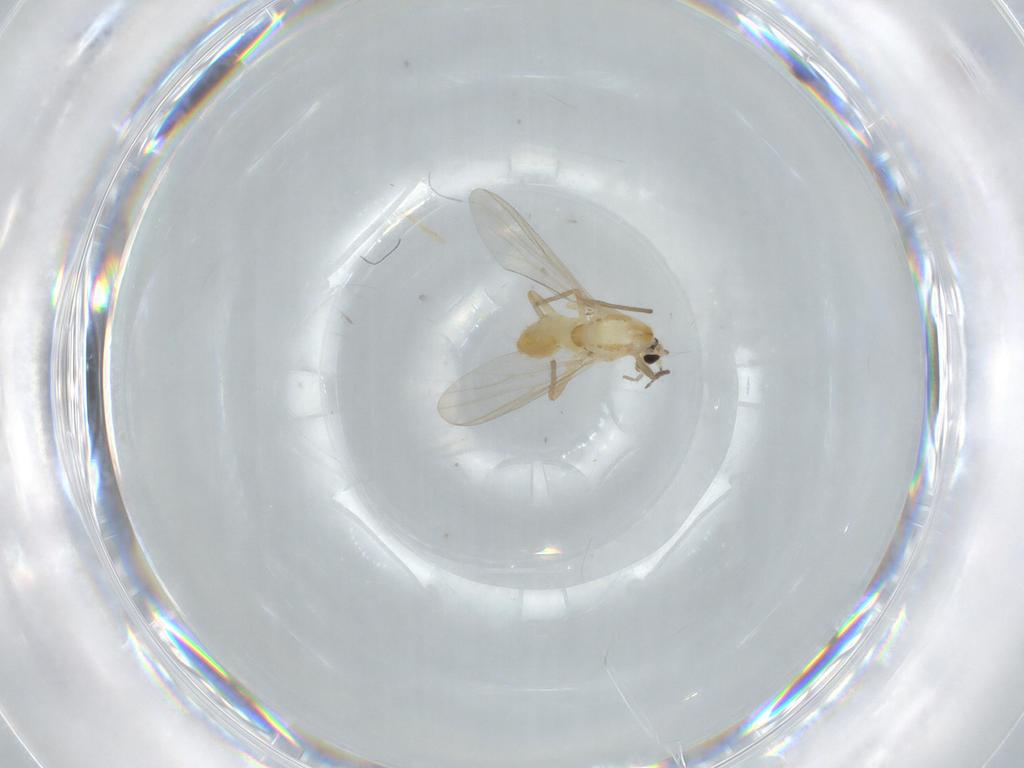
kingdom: Animalia
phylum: Arthropoda
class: Insecta
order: Diptera
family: Chironomidae
